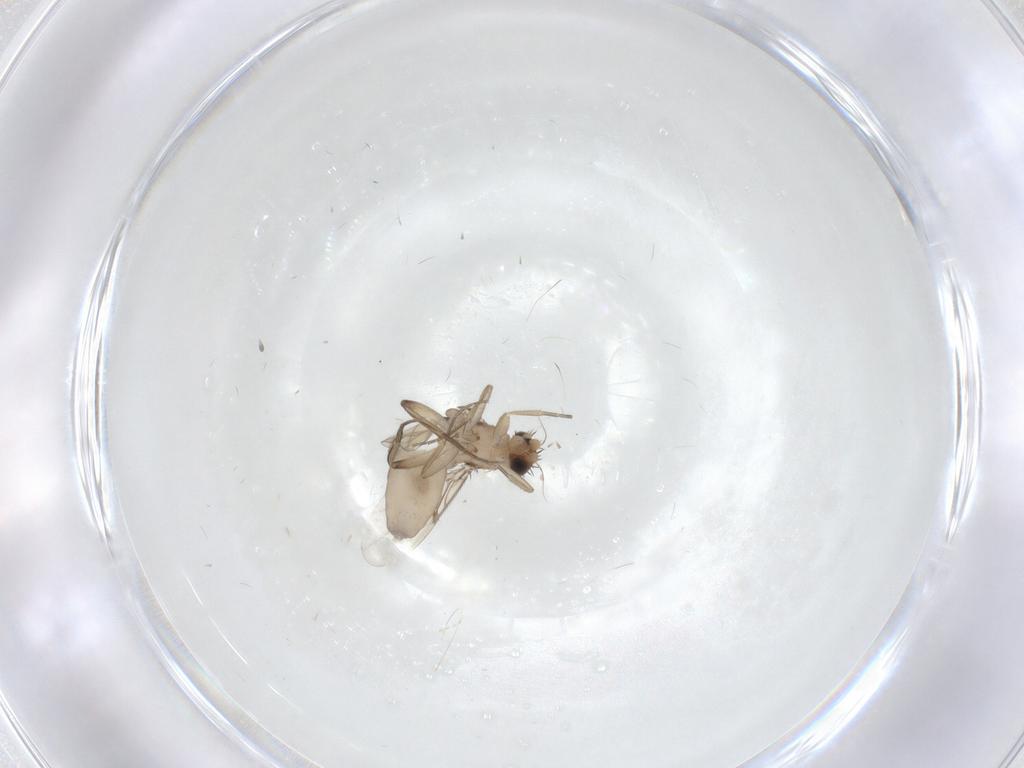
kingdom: Animalia
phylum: Arthropoda
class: Insecta
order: Diptera
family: Phoridae
